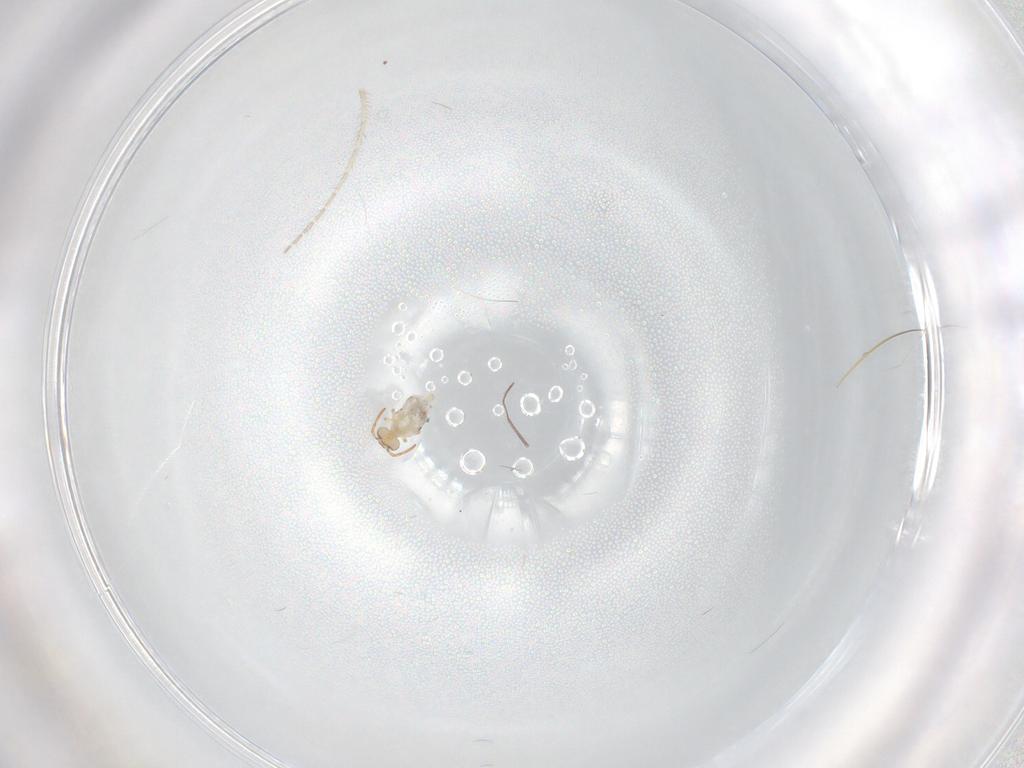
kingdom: Animalia
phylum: Arthropoda
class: Insecta
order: Psocodea
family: Amphipsocidae
